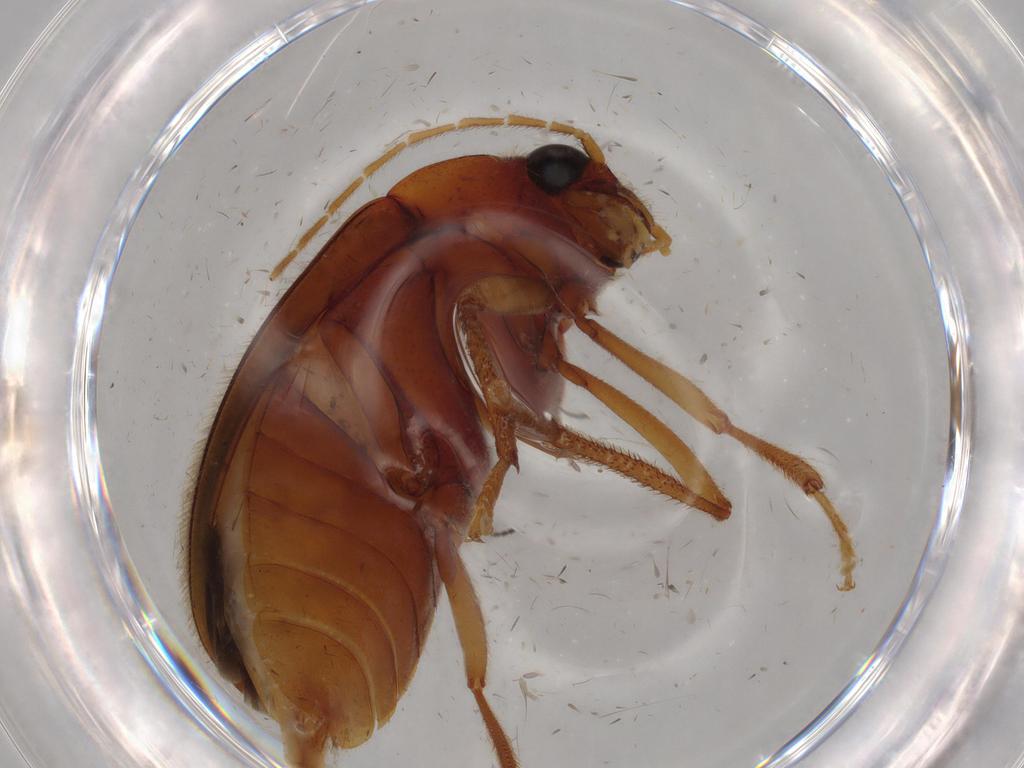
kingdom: Animalia
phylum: Arthropoda
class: Insecta
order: Coleoptera
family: Ptilodactylidae
